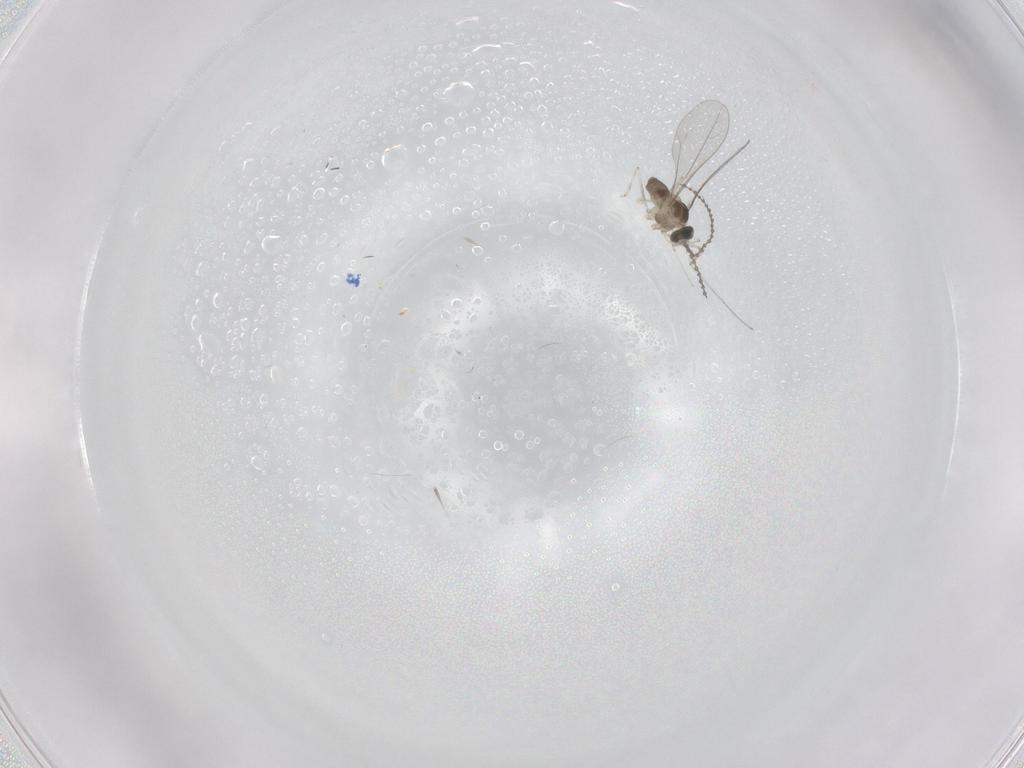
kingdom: Animalia
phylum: Arthropoda
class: Insecta
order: Diptera
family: Cecidomyiidae
